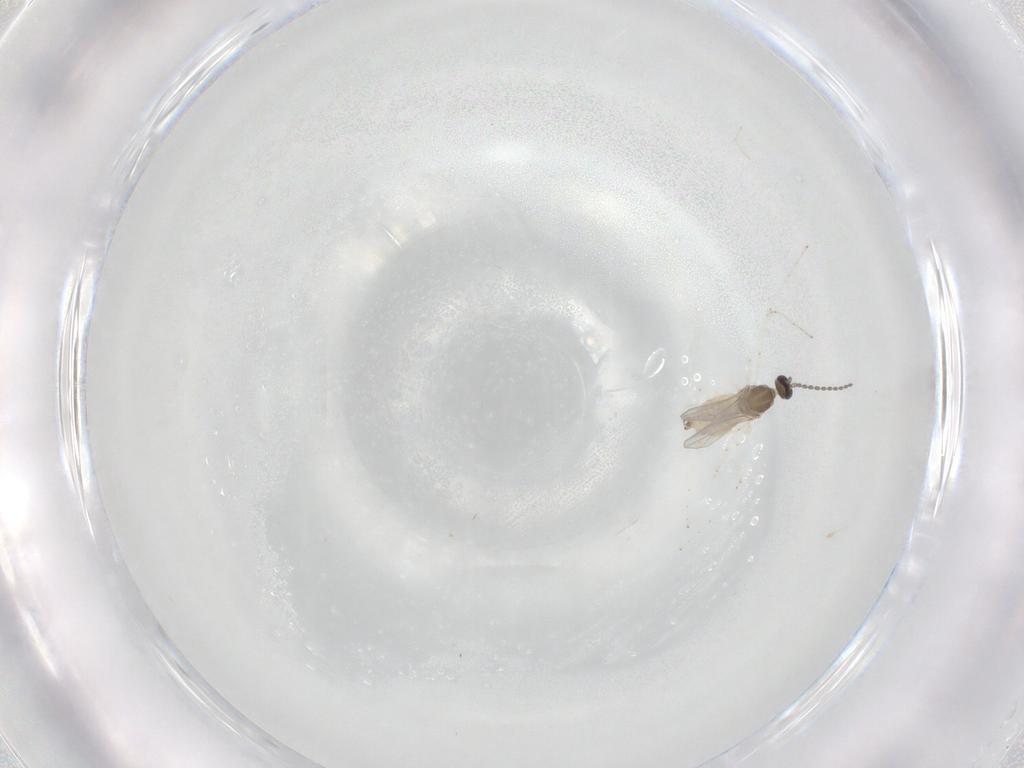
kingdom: Animalia
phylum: Arthropoda
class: Insecta
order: Diptera
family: Cecidomyiidae
